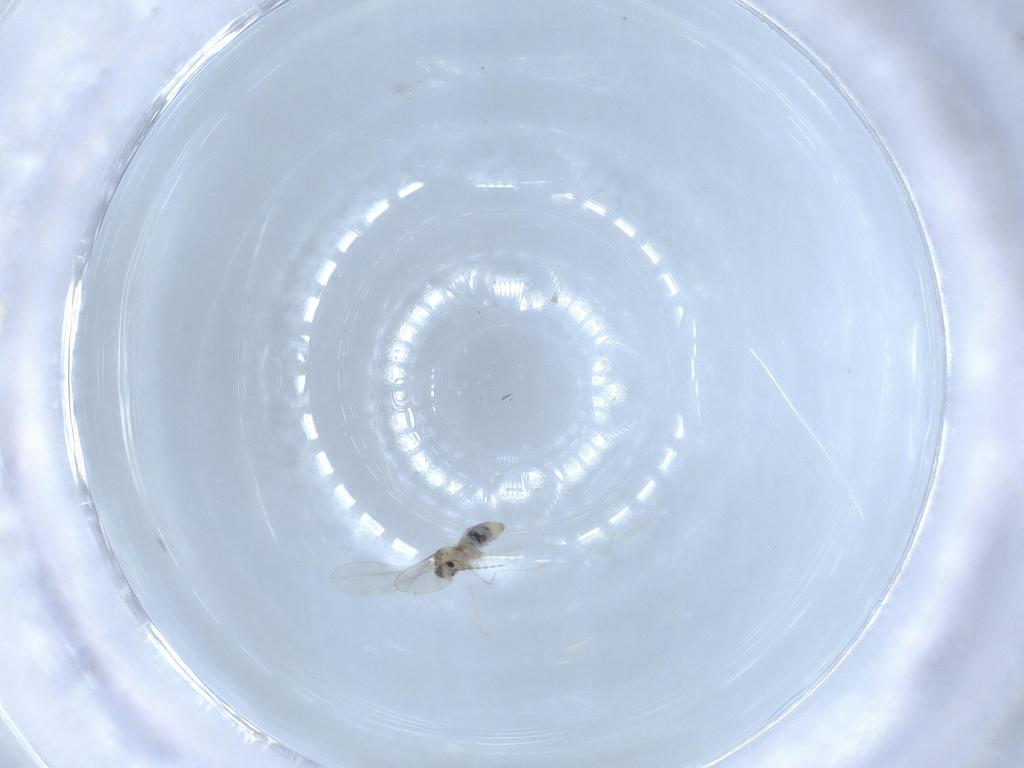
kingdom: Animalia
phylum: Arthropoda
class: Insecta
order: Diptera
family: Cecidomyiidae
